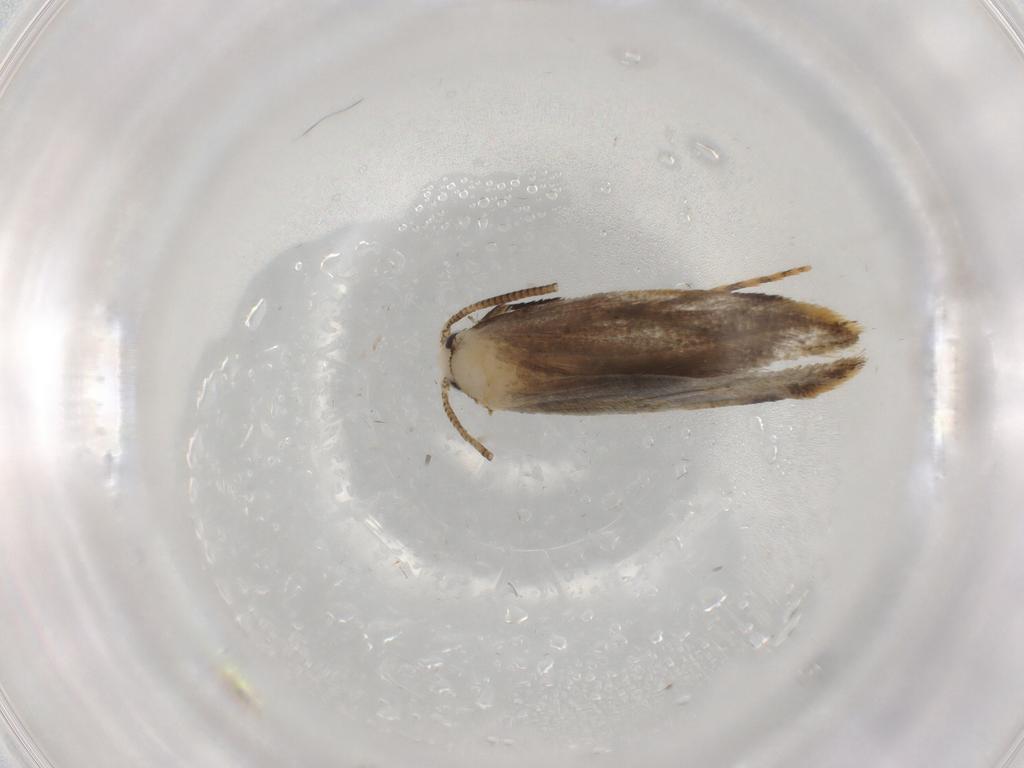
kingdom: Animalia
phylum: Arthropoda
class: Insecta
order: Lepidoptera
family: Tineidae
